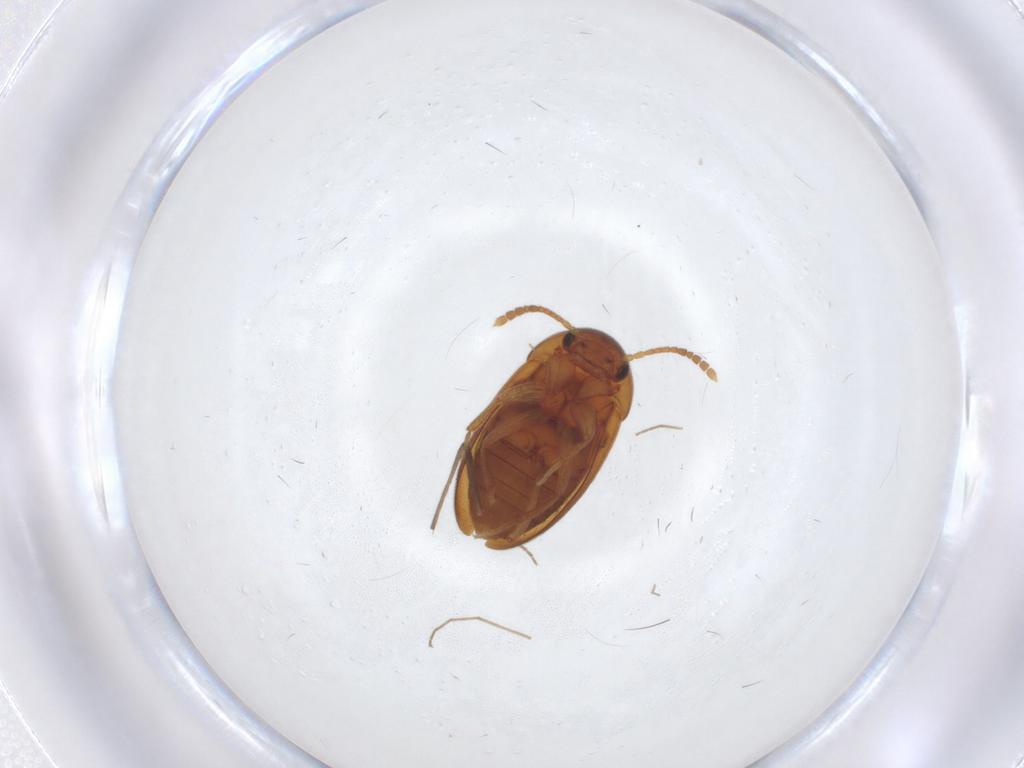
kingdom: Animalia
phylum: Arthropoda
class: Insecta
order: Coleoptera
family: Leiodidae
